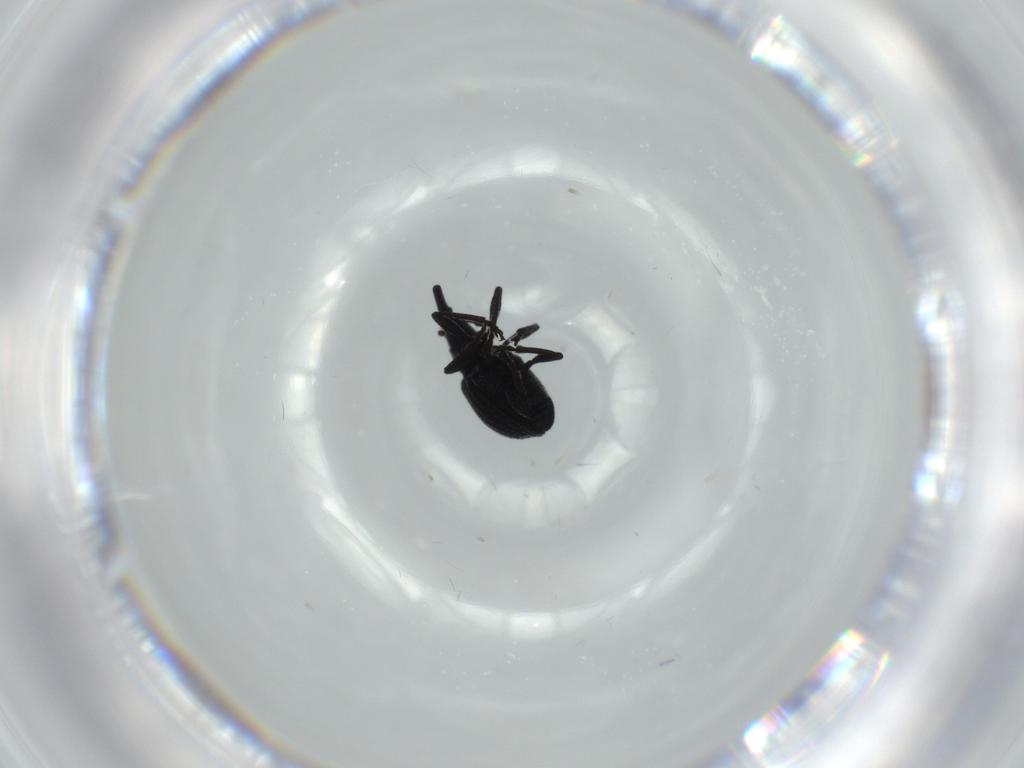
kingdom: Animalia
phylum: Arthropoda
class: Insecta
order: Coleoptera
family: Brentidae
